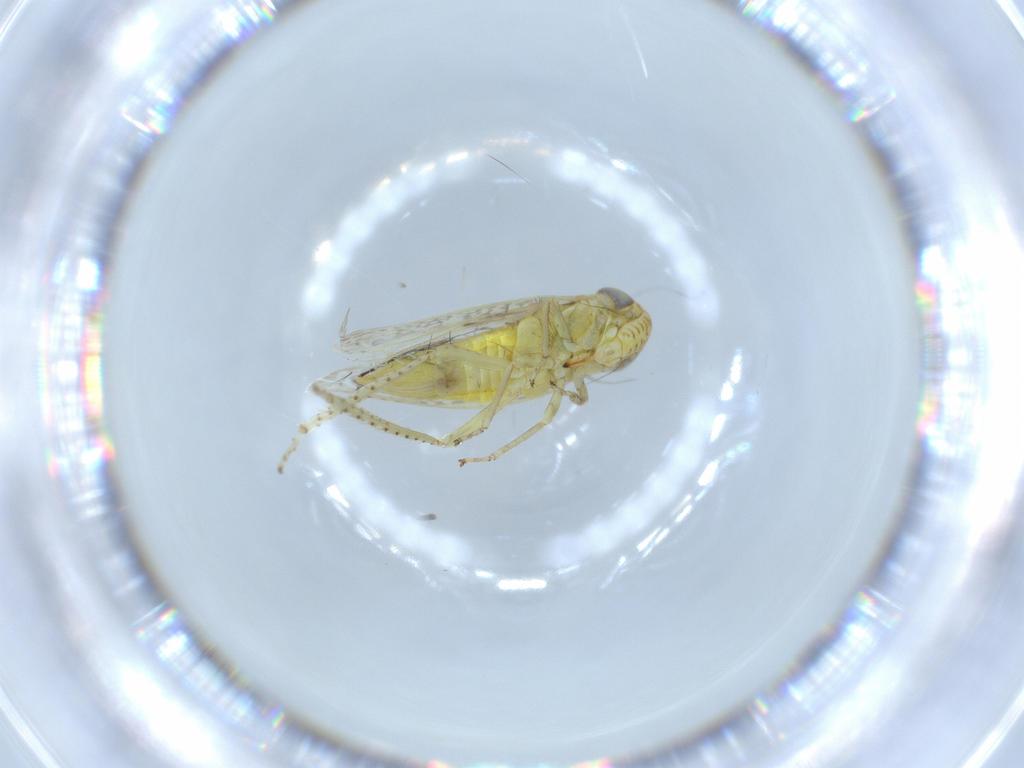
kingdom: Animalia
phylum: Arthropoda
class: Insecta
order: Hemiptera
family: Cicadellidae
